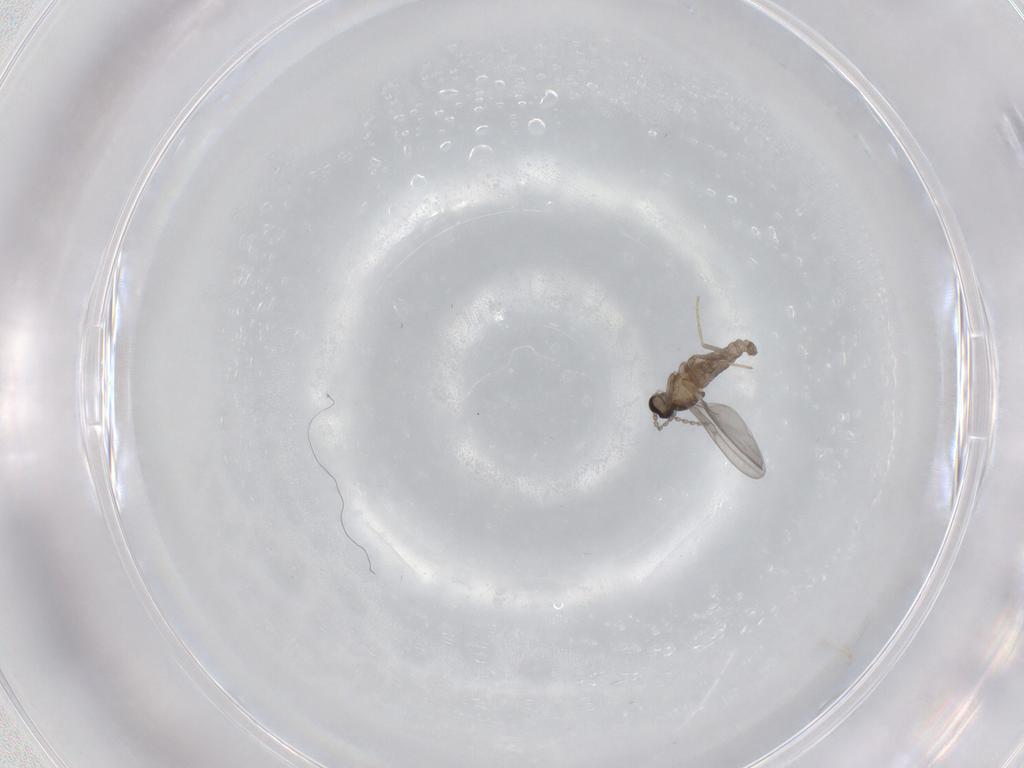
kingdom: Animalia
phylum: Arthropoda
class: Insecta
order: Diptera
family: Cecidomyiidae
